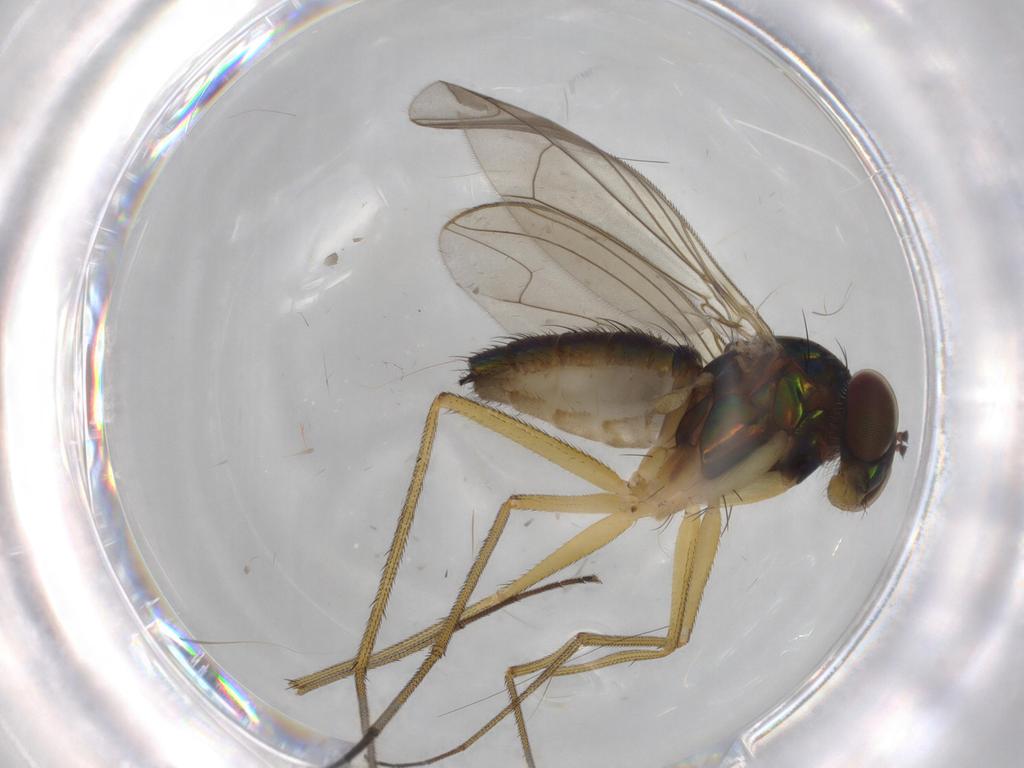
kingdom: Animalia
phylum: Arthropoda
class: Insecta
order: Diptera
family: Dolichopodidae
